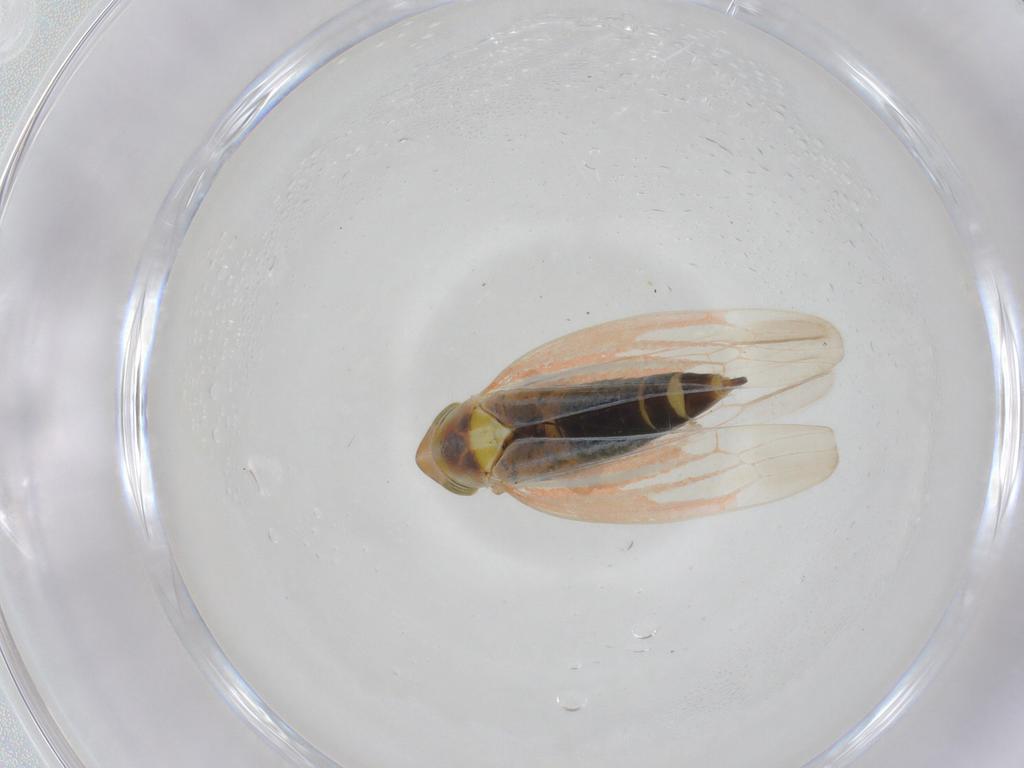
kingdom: Animalia
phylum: Arthropoda
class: Insecta
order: Hemiptera
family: Cicadellidae
